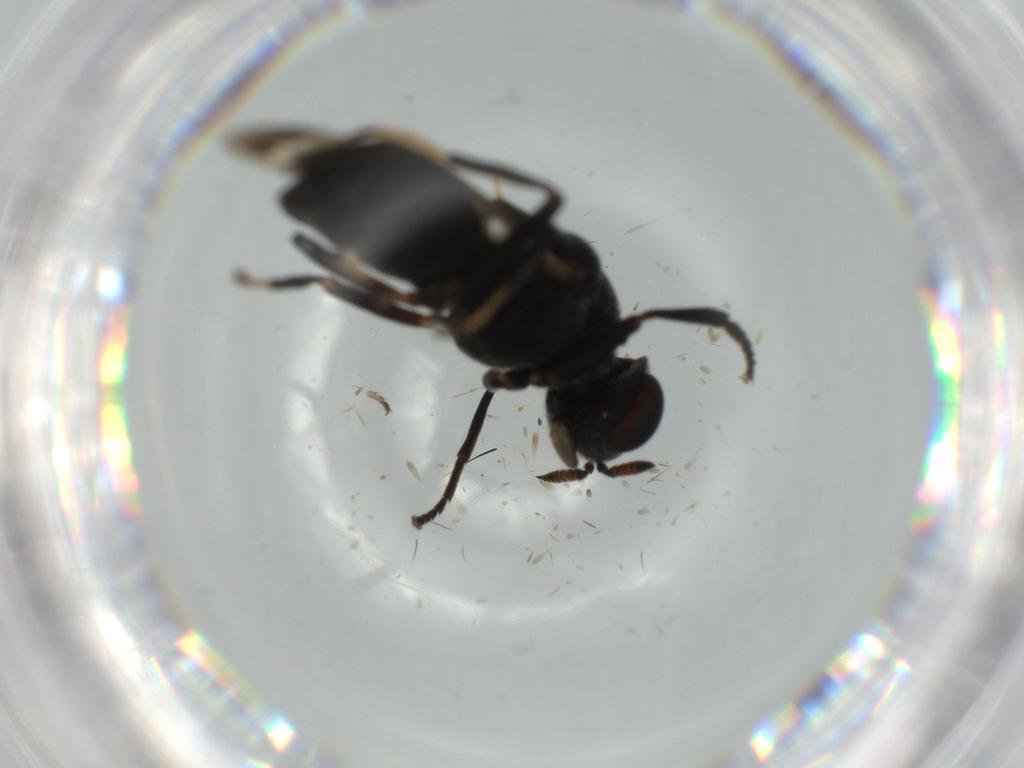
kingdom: Animalia
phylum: Arthropoda
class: Insecta
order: Diptera
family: Stratiomyidae
